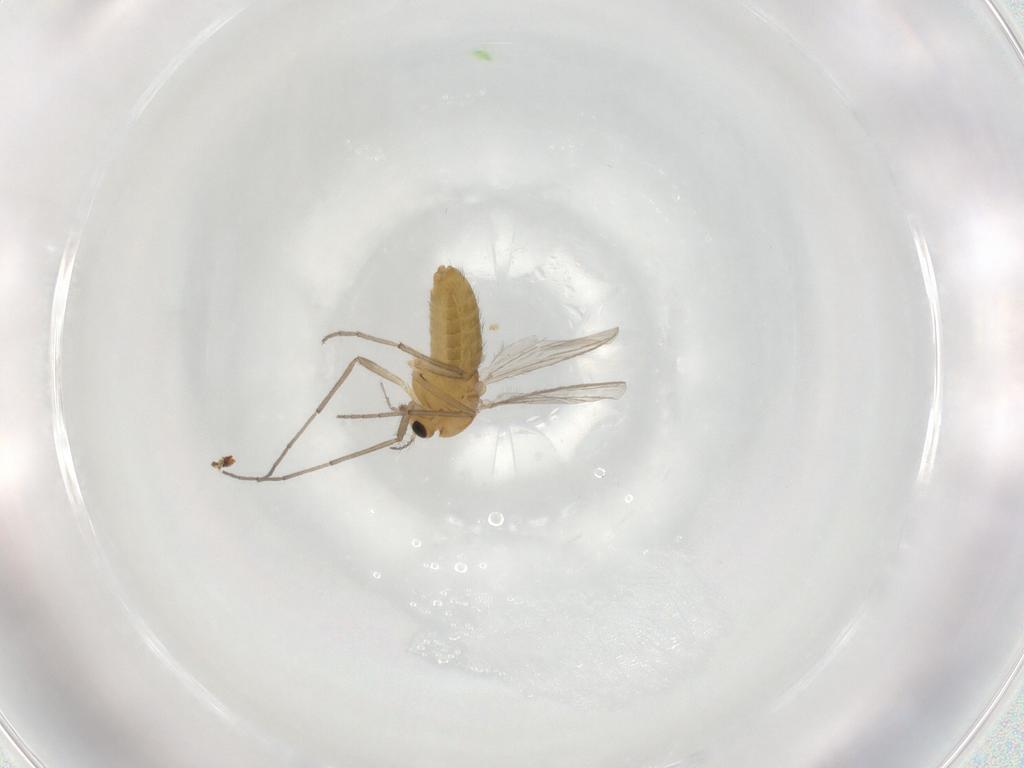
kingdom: Animalia
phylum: Arthropoda
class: Insecta
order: Diptera
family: Chironomidae
